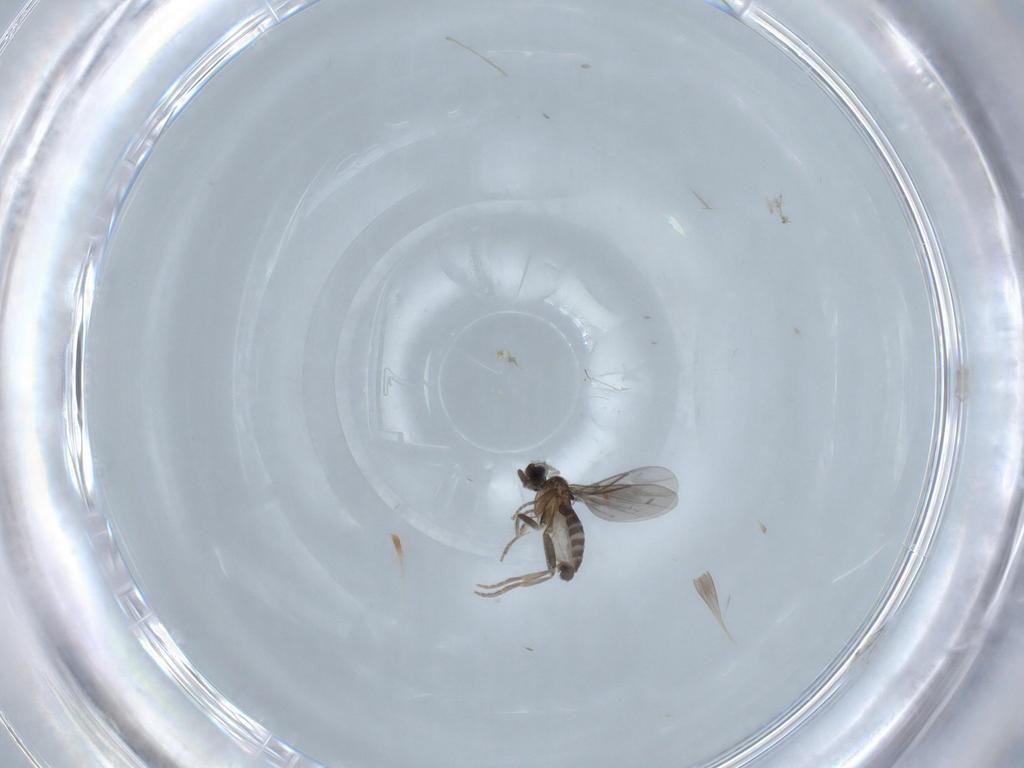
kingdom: Animalia
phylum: Arthropoda
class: Insecta
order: Diptera
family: Chironomidae
